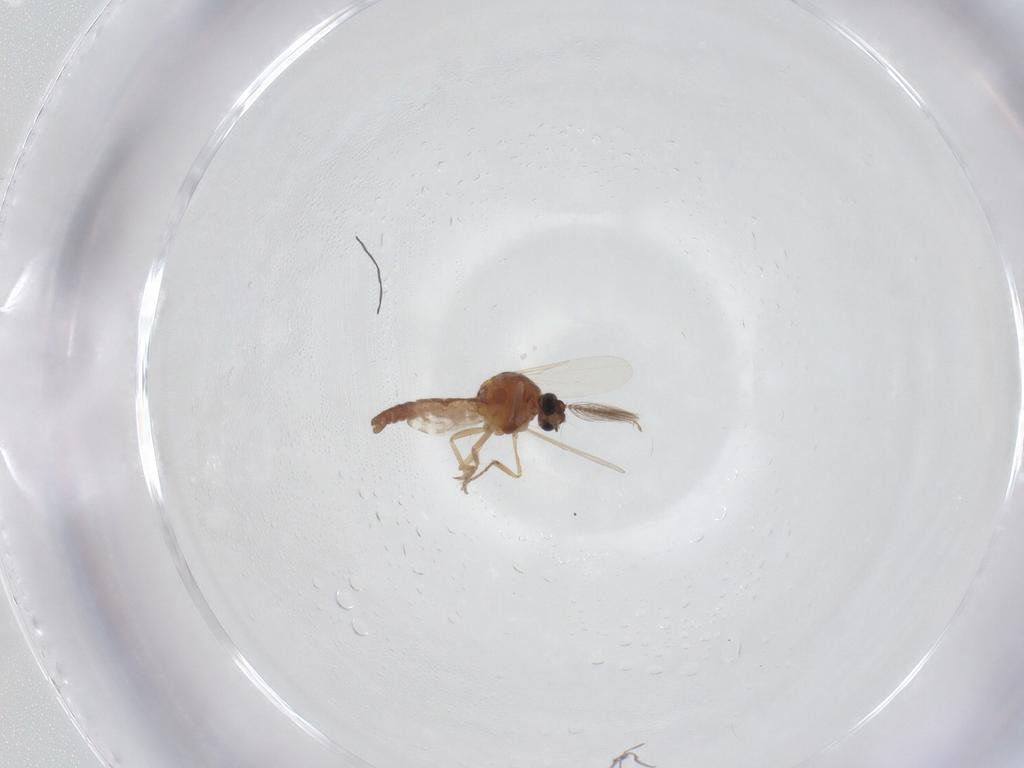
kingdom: Animalia
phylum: Arthropoda
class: Insecta
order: Diptera
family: Ceratopogonidae
